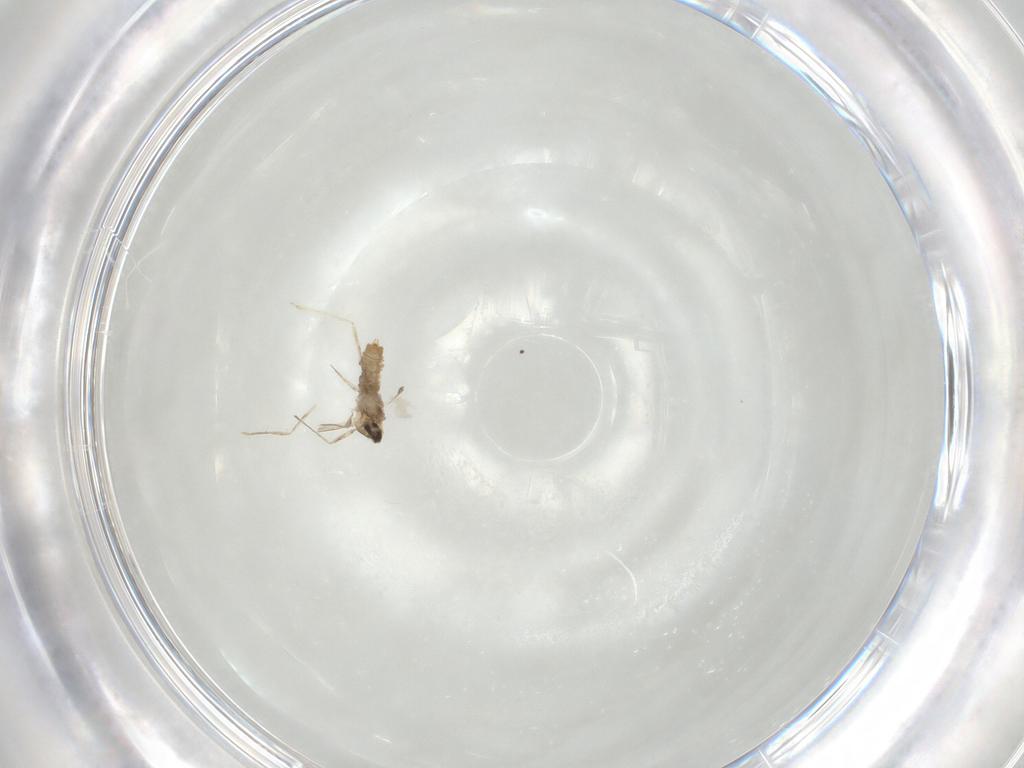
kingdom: Animalia
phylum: Arthropoda
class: Insecta
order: Diptera
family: Cecidomyiidae
